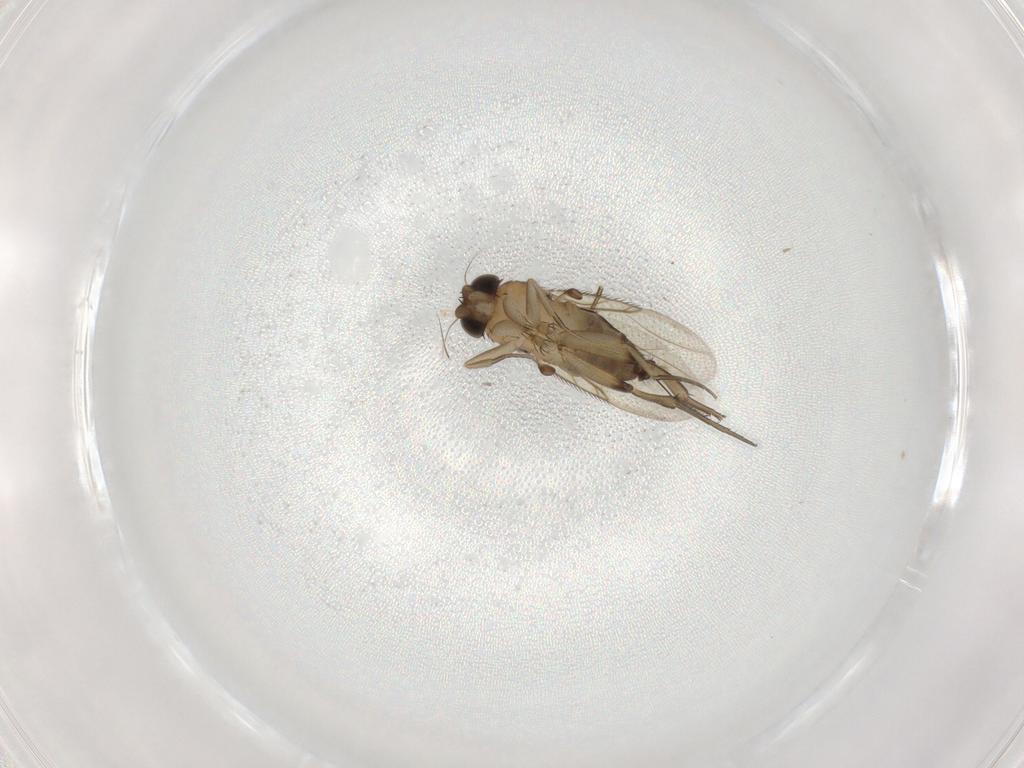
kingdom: Animalia
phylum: Arthropoda
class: Insecta
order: Diptera
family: Phoridae
